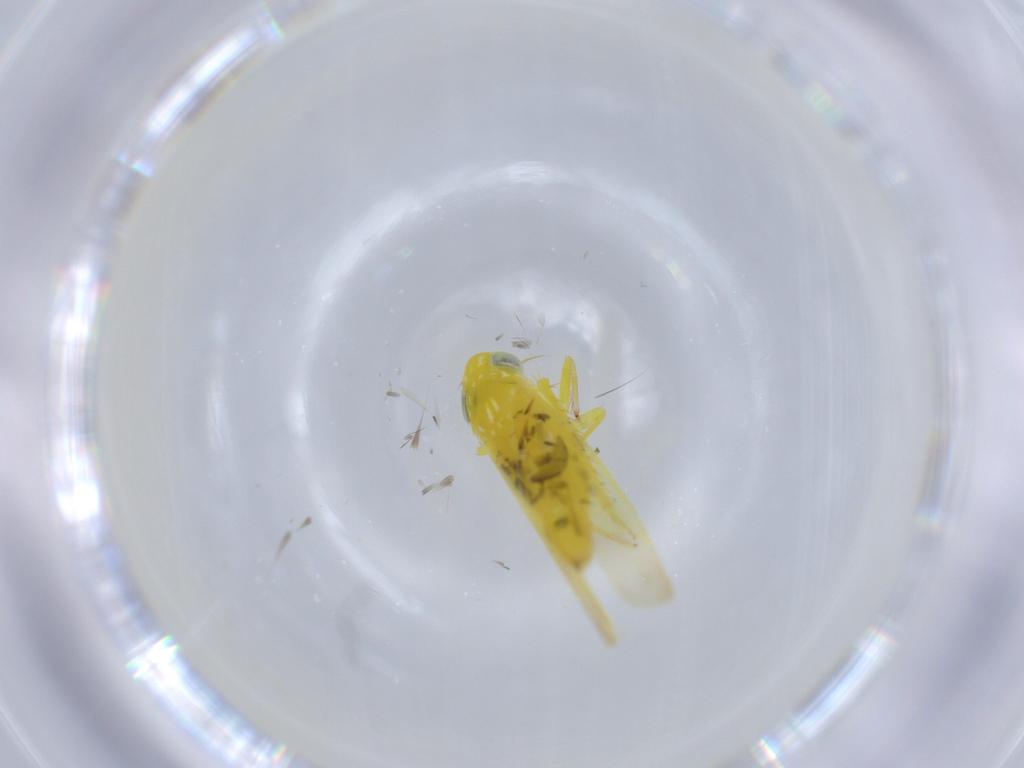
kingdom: Animalia
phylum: Arthropoda
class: Insecta
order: Hemiptera
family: Cicadellidae
